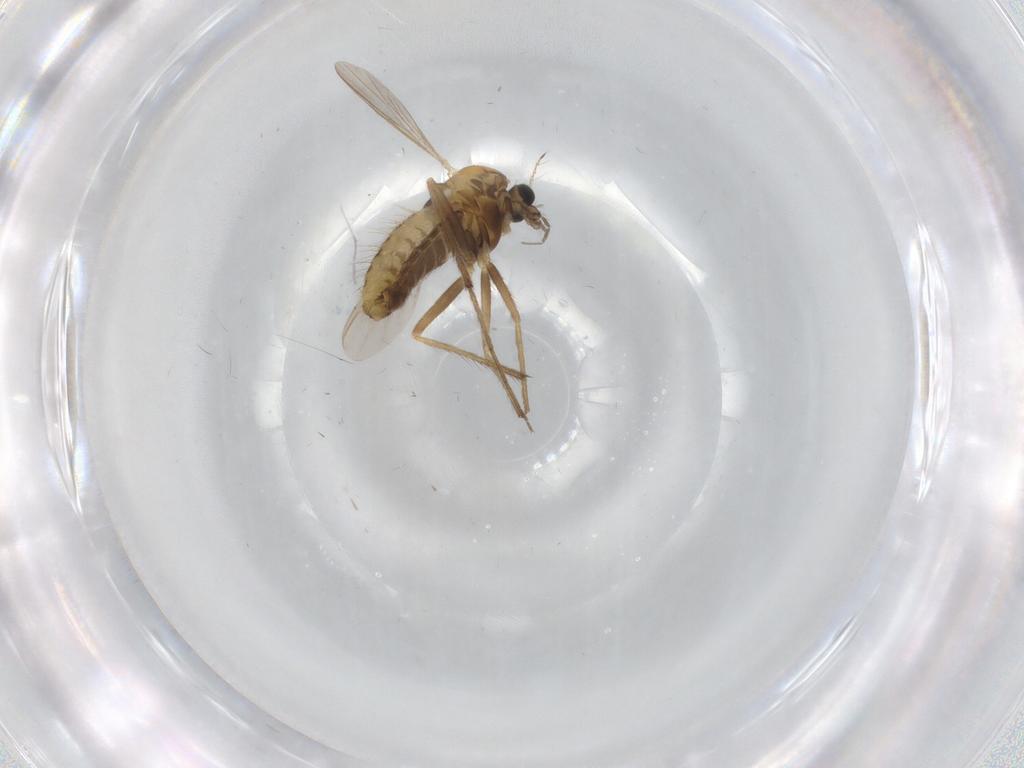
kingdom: Animalia
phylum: Arthropoda
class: Insecta
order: Diptera
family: Chironomidae
